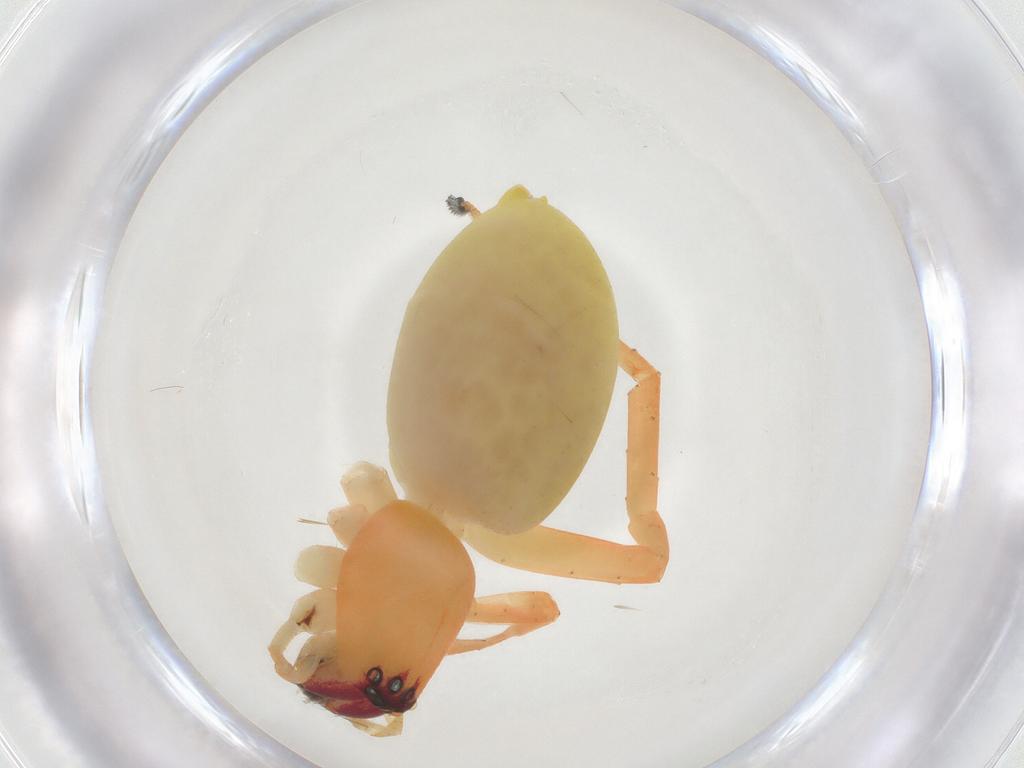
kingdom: Animalia
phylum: Arthropoda
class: Arachnida
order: Araneae
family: Anyphaenidae
